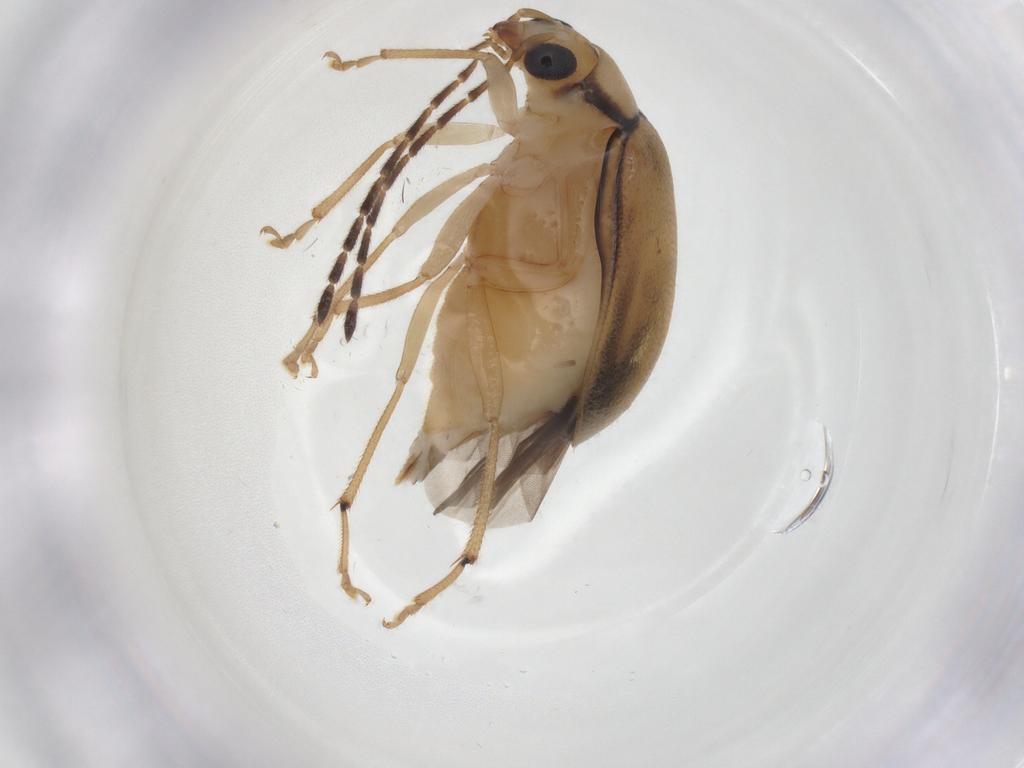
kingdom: Animalia
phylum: Arthropoda
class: Insecta
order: Coleoptera
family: Chrysomelidae
